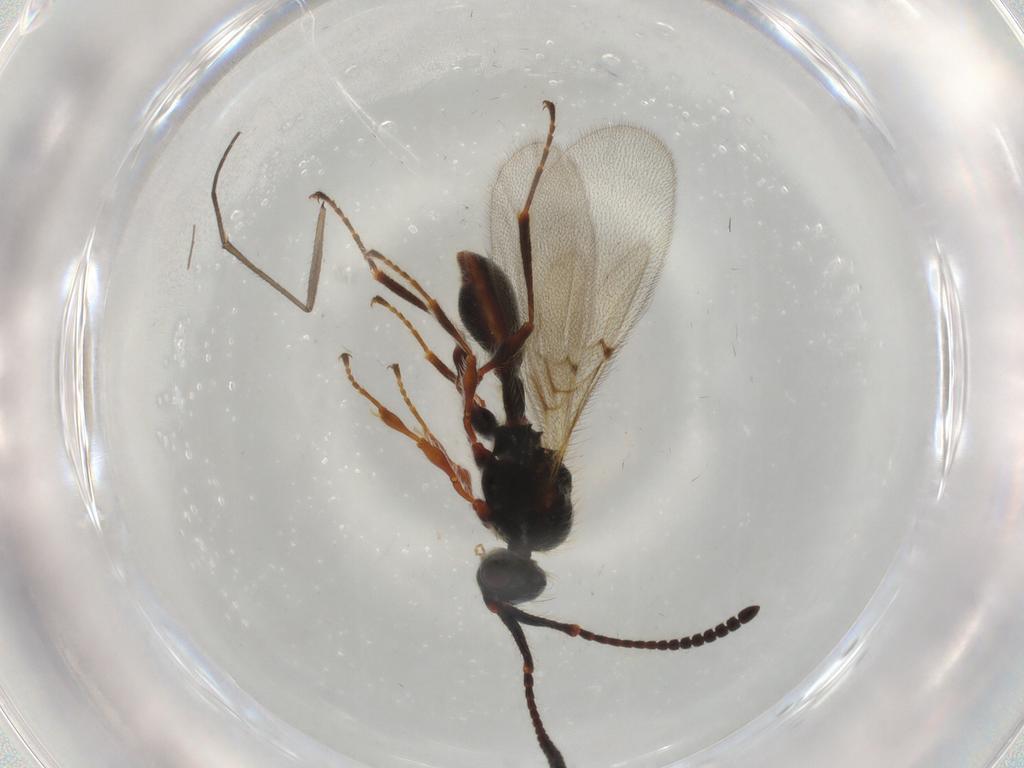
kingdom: Animalia
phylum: Arthropoda
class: Insecta
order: Hymenoptera
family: Diapriidae
